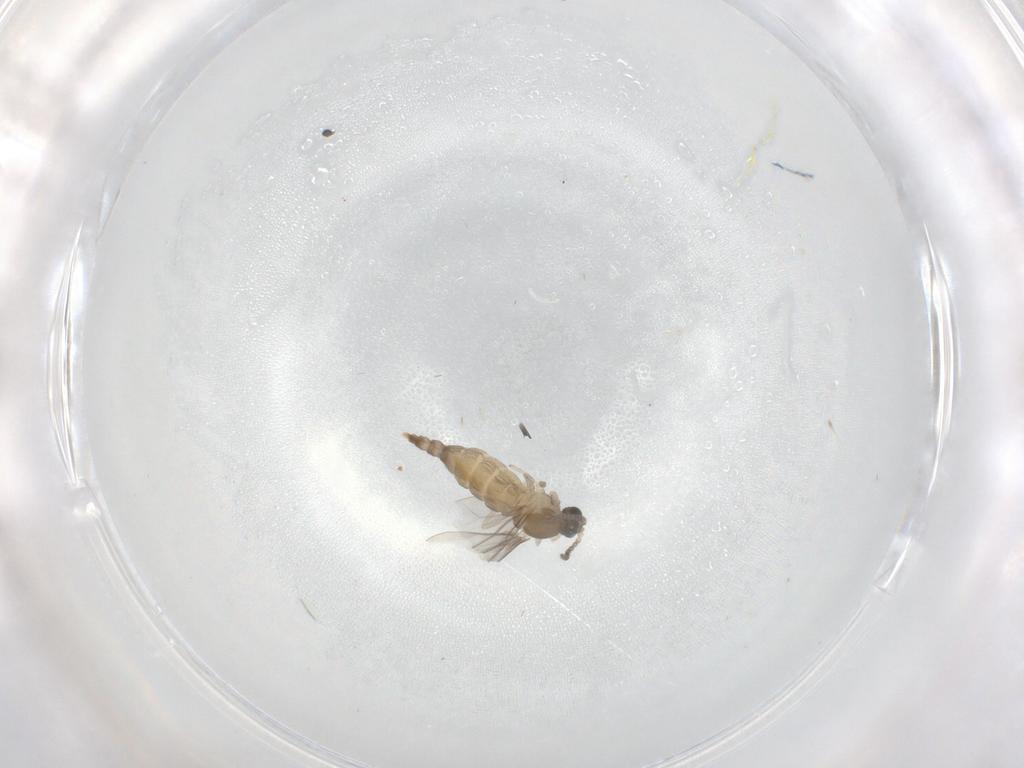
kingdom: Animalia
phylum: Arthropoda
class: Insecta
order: Diptera
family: Cecidomyiidae
